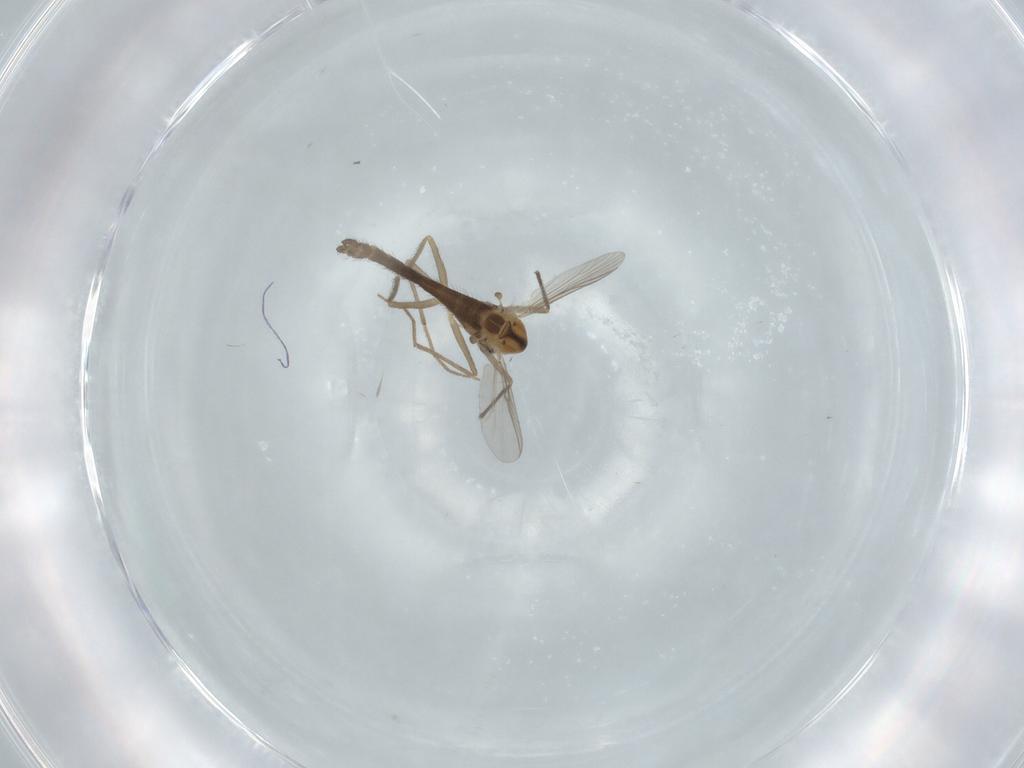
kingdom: Animalia
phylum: Arthropoda
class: Insecta
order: Diptera
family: Chironomidae
